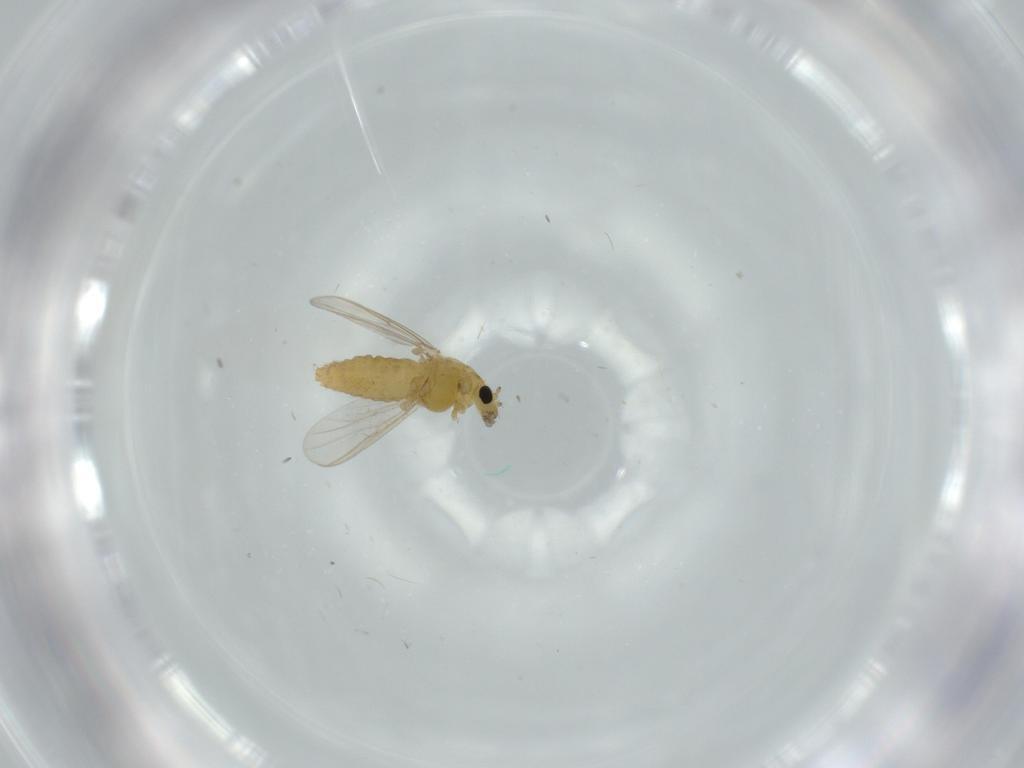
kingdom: Animalia
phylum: Arthropoda
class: Insecta
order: Diptera
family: Chironomidae
